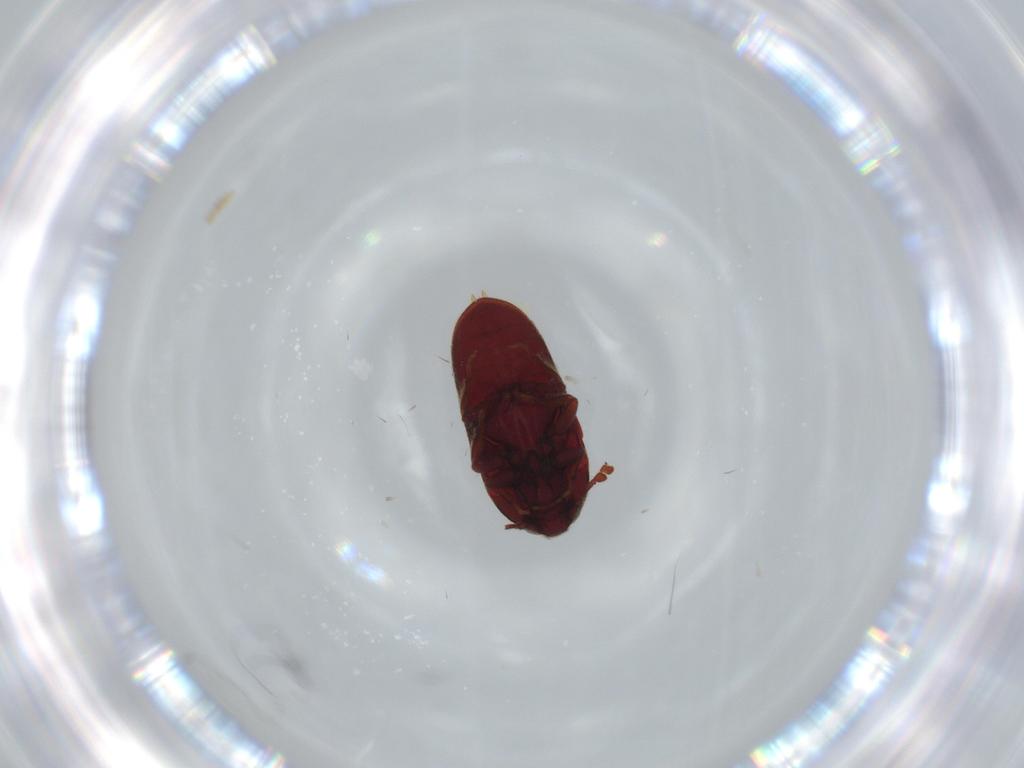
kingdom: Animalia
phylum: Arthropoda
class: Insecta
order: Coleoptera
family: Throscidae
